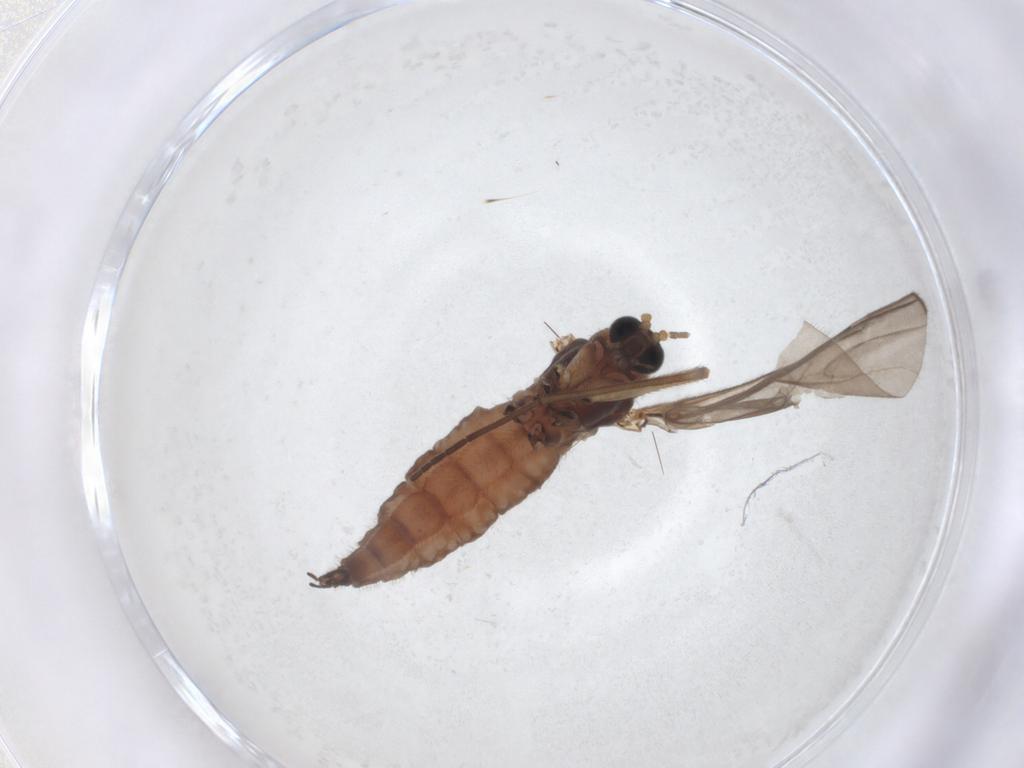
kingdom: Animalia
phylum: Arthropoda
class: Insecta
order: Diptera
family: Sciaridae
